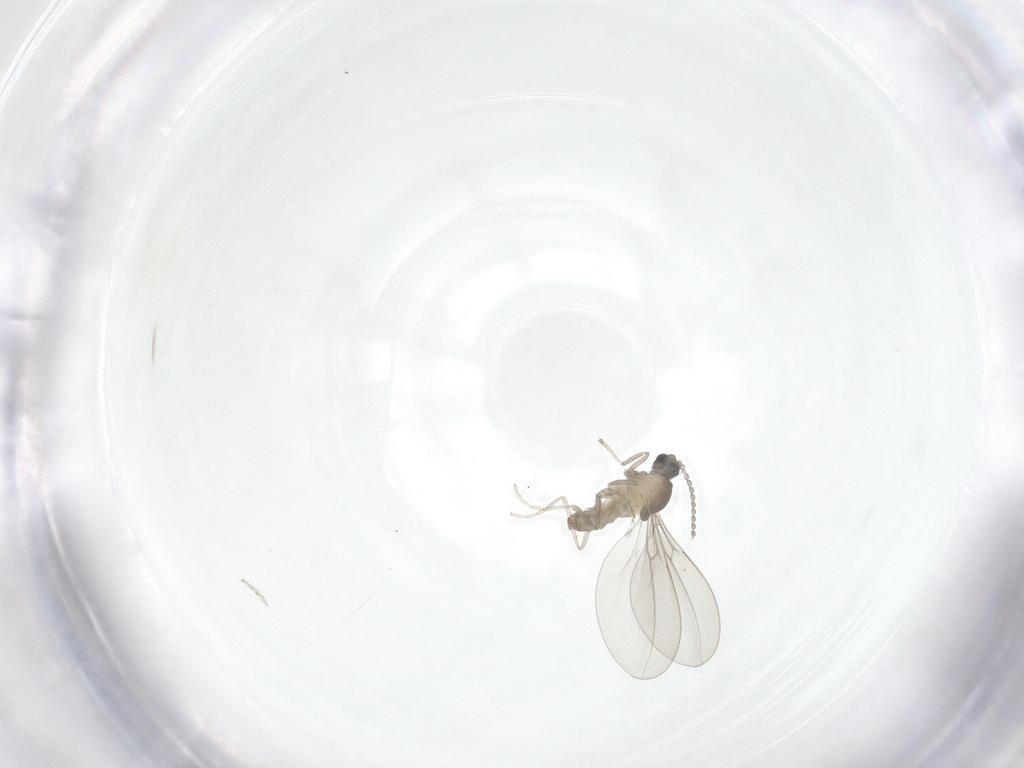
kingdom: Animalia
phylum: Arthropoda
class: Insecta
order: Diptera
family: Cecidomyiidae
